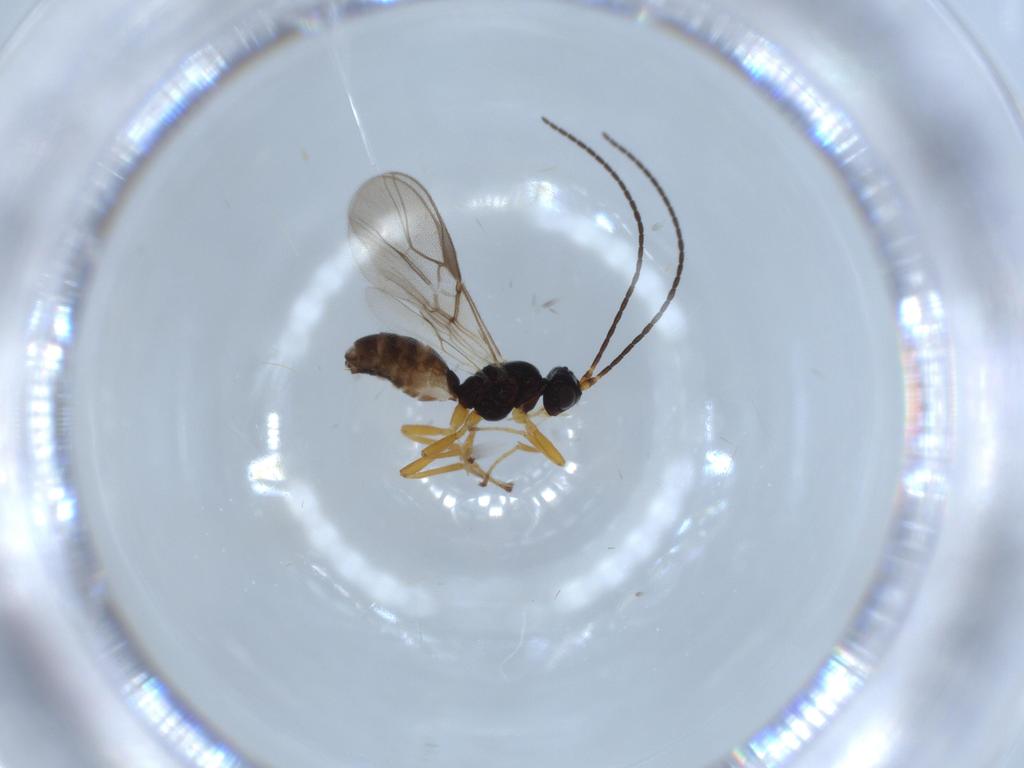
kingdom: Animalia
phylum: Arthropoda
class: Insecta
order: Hymenoptera
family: Braconidae
